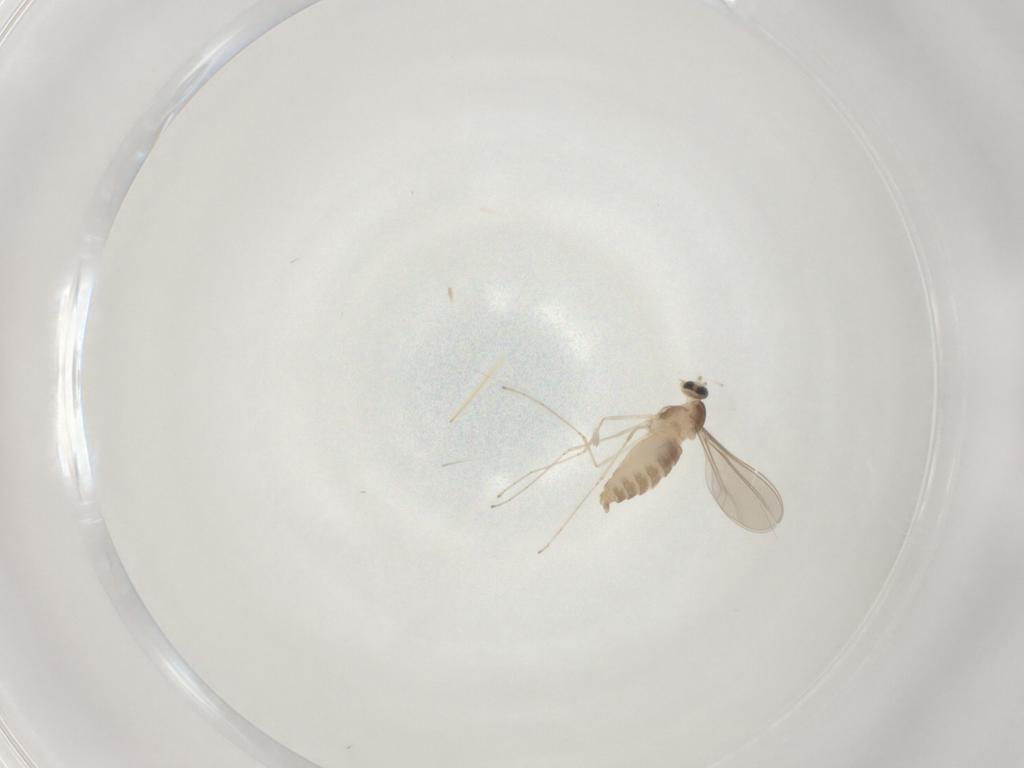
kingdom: Animalia
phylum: Arthropoda
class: Insecta
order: Diptera
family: Cecidomyiidae
